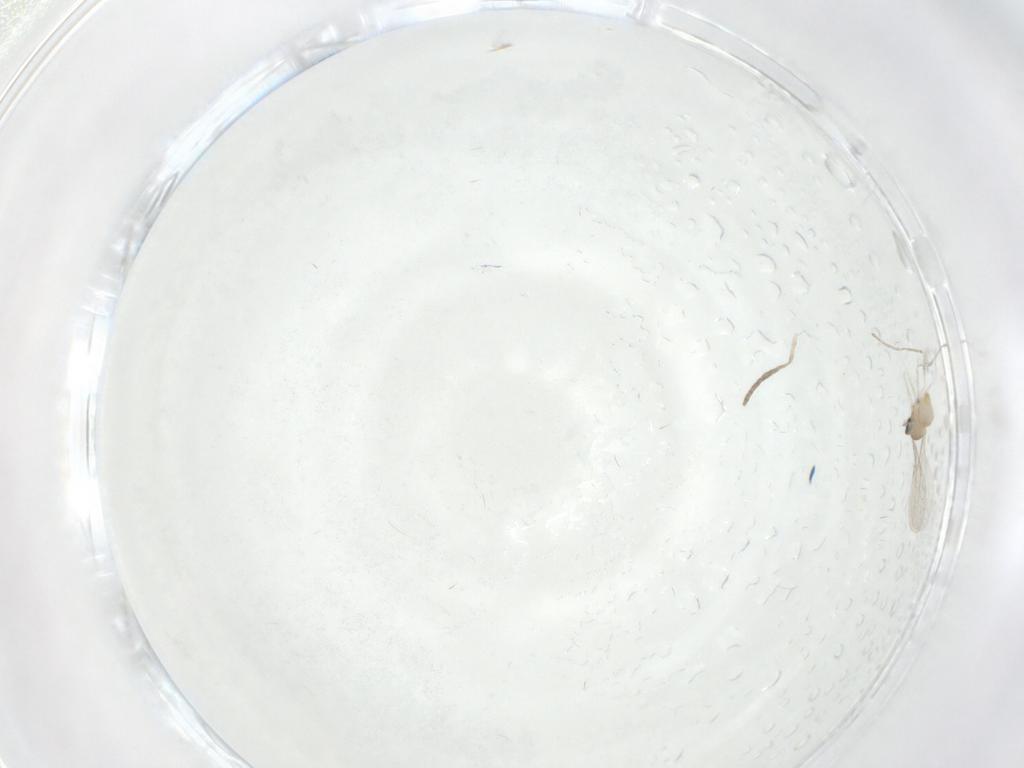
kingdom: Animalia
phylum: Arthropoda
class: Insecta
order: Diptera
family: Cecidomyiidae
